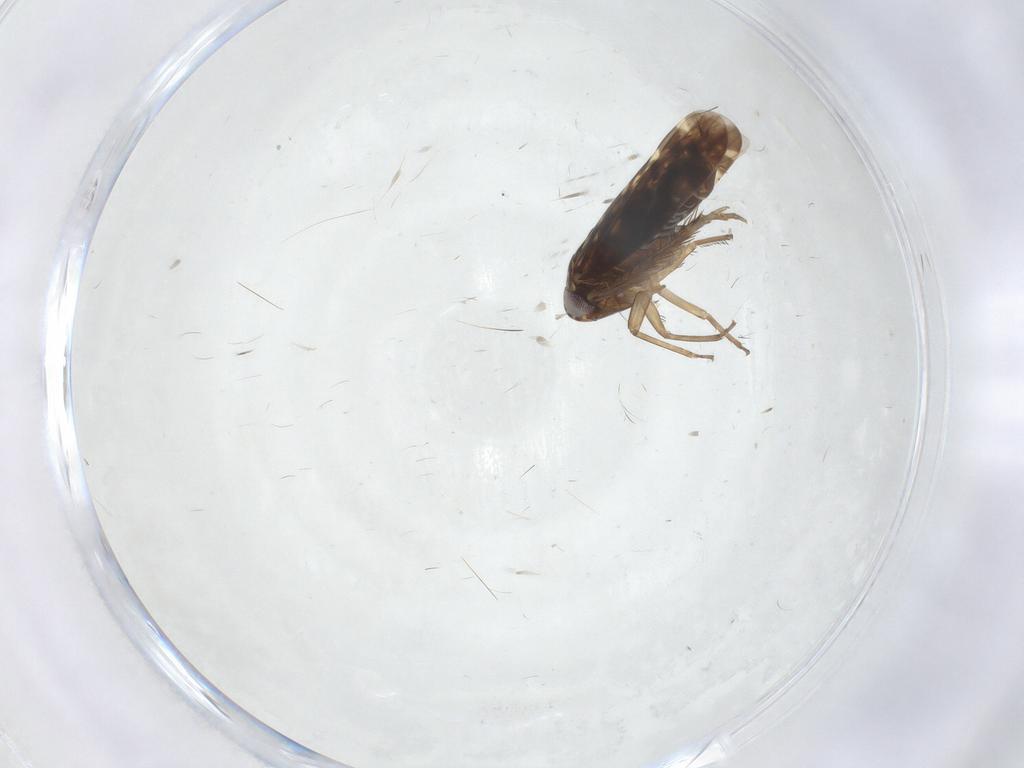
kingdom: Animalia
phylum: Arthropoda
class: Insecta
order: Hemiptera
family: Cicadellidae
